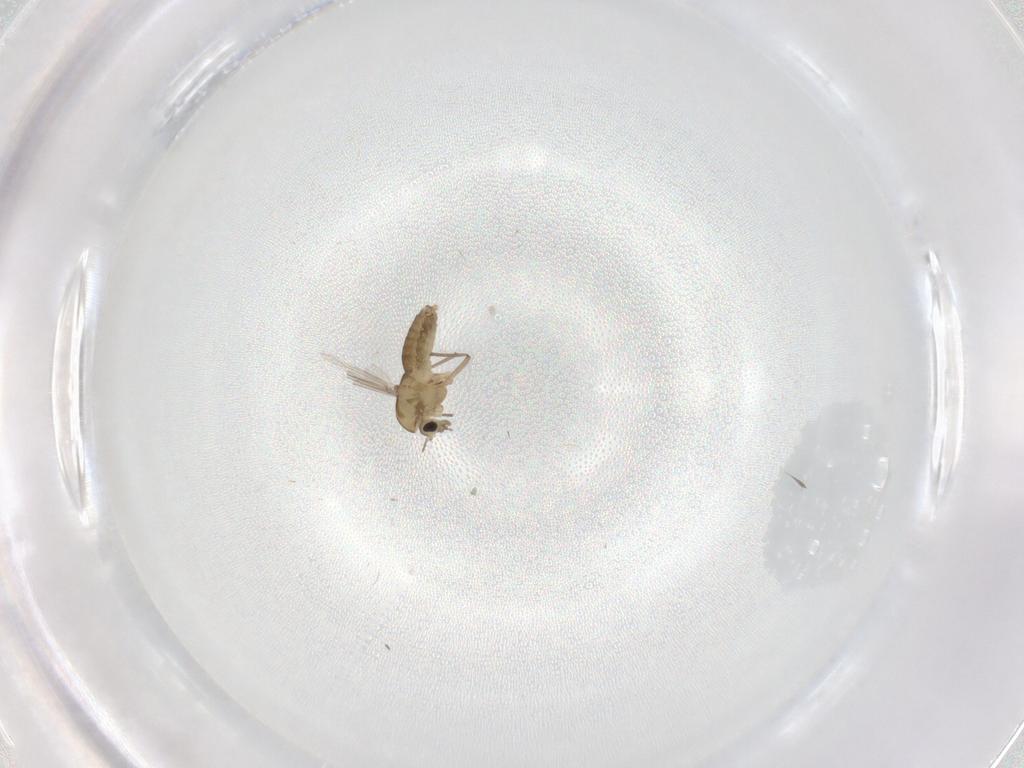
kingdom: Animalia
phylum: Arthropoda
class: Insecta
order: Diptera
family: Chironomidae
